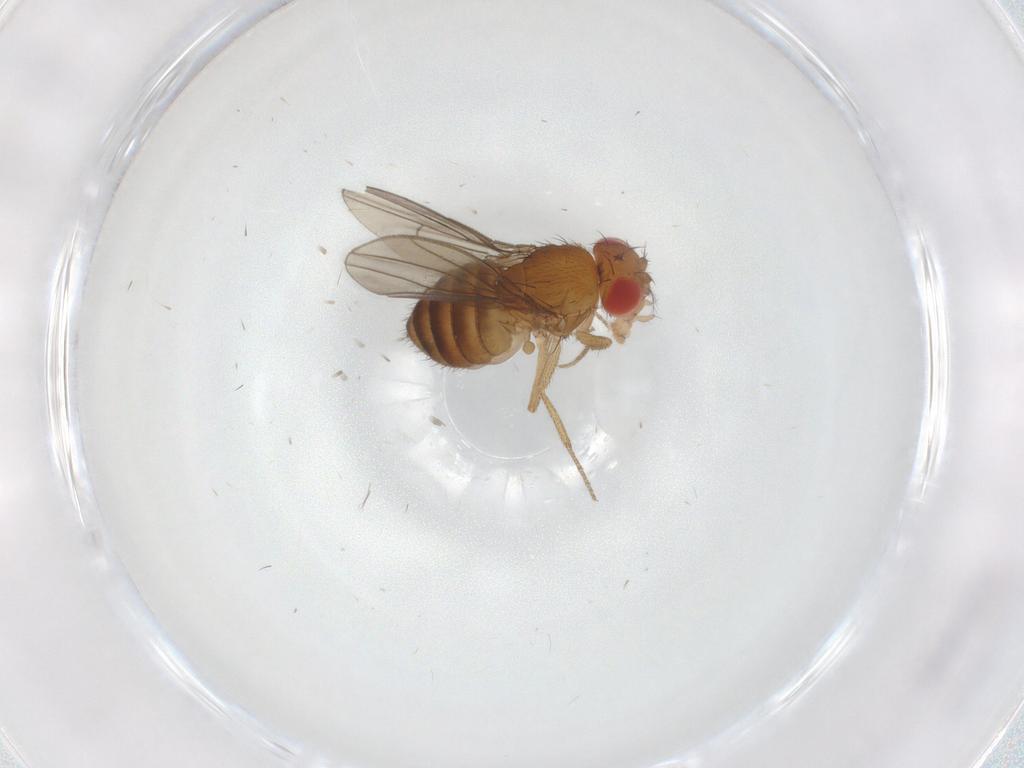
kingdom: Animalia
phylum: Arthropoda
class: Insecta
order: Diptera
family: Drosophilidae
